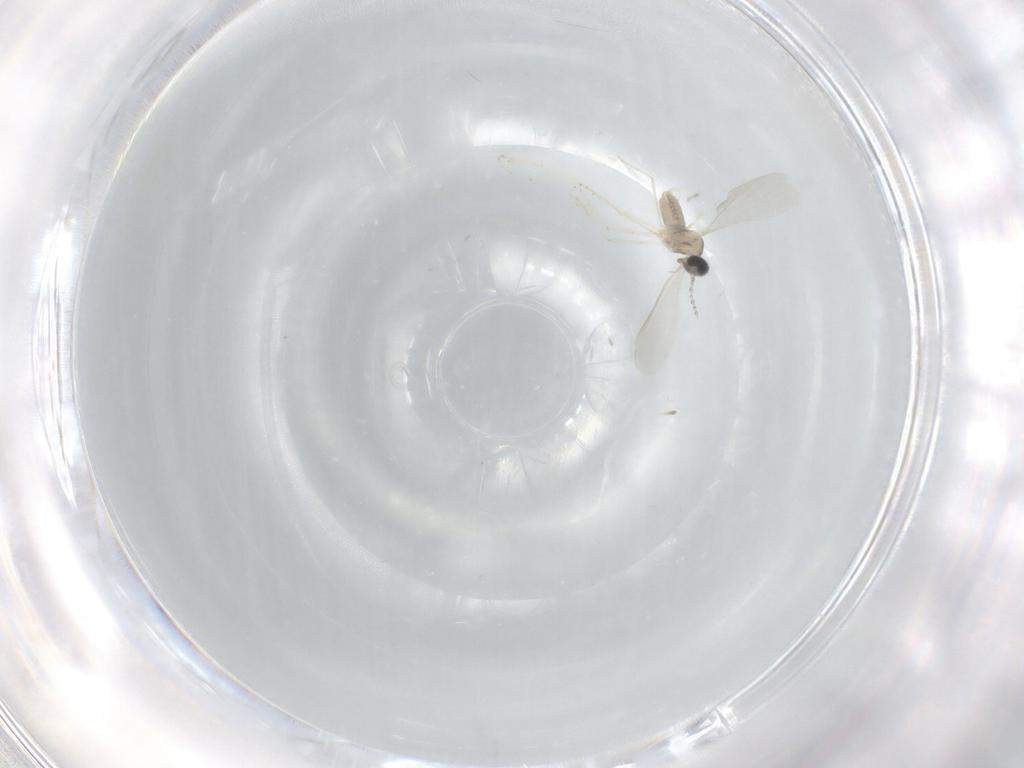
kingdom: Animalia
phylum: Arthropoda
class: Insecta
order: Diptera
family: Cecidomyiidae
